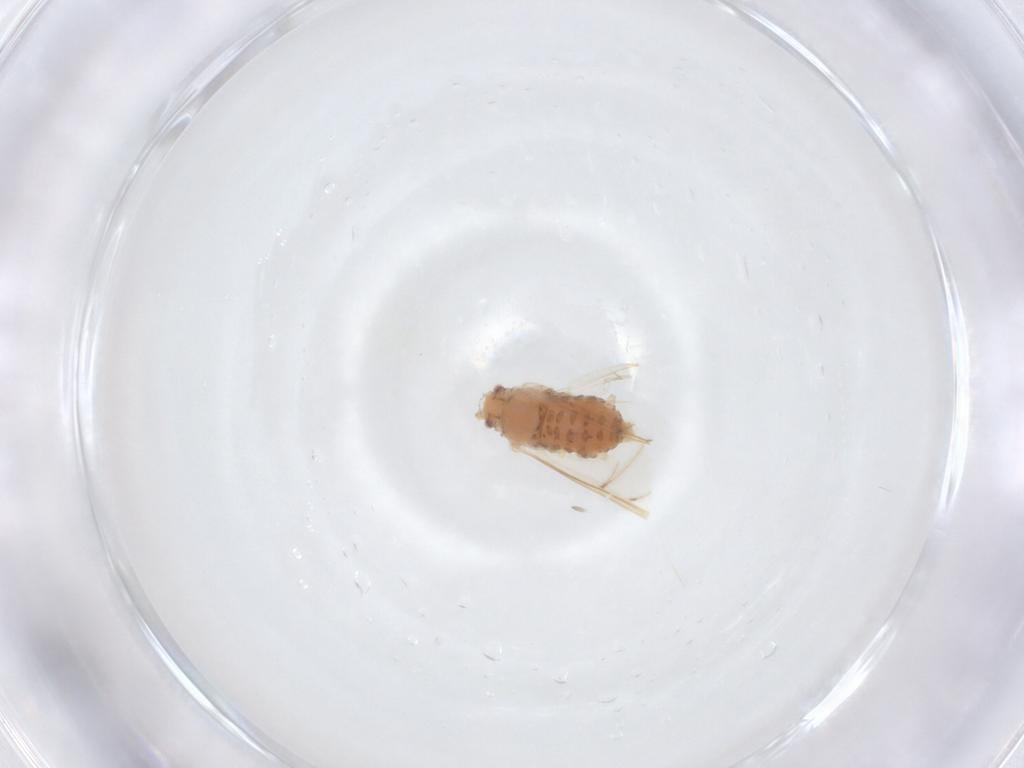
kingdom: Animalia
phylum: Arthropoda
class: Insecta
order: Hemiptera
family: Aphididae
